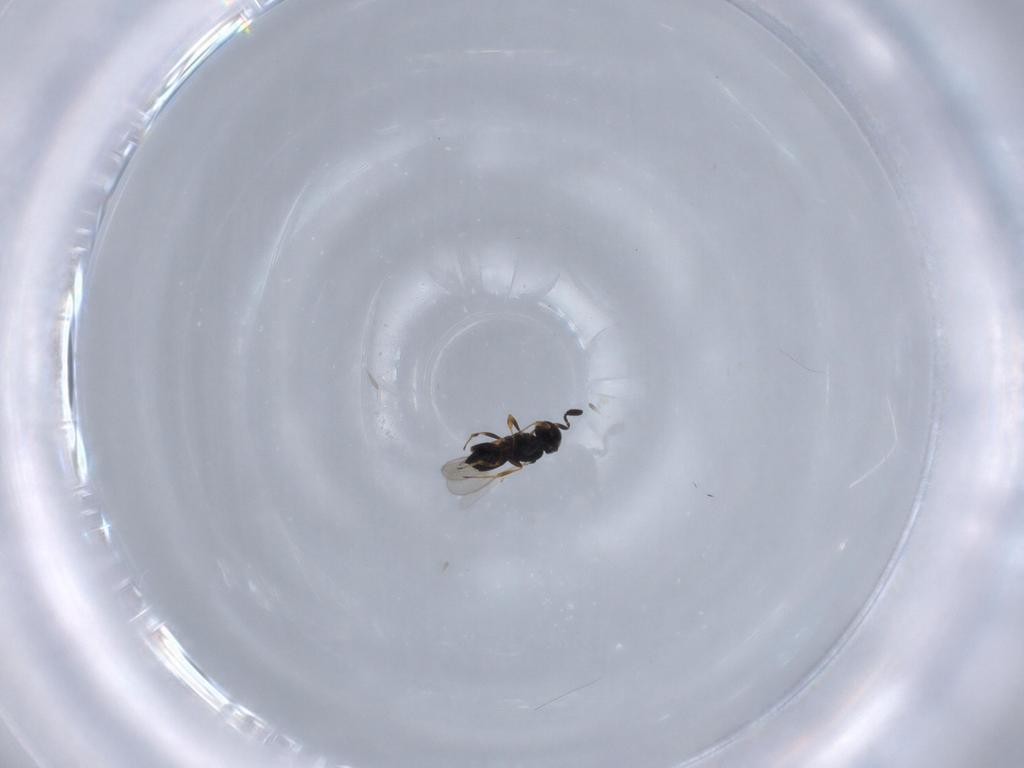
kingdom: Animalia
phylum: Arthropoda
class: Insecta
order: Hymenoptera
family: Scelionidae
